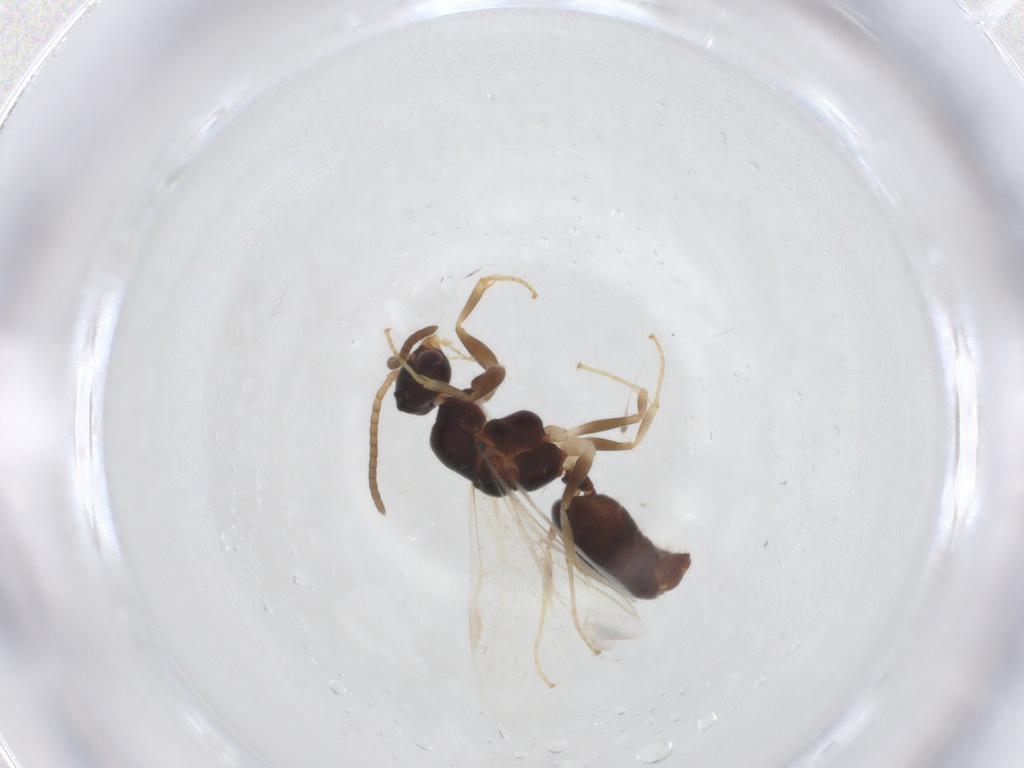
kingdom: Animalia
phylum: Arthropoda
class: Insecta
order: Hymenoptera
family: Formicidae
